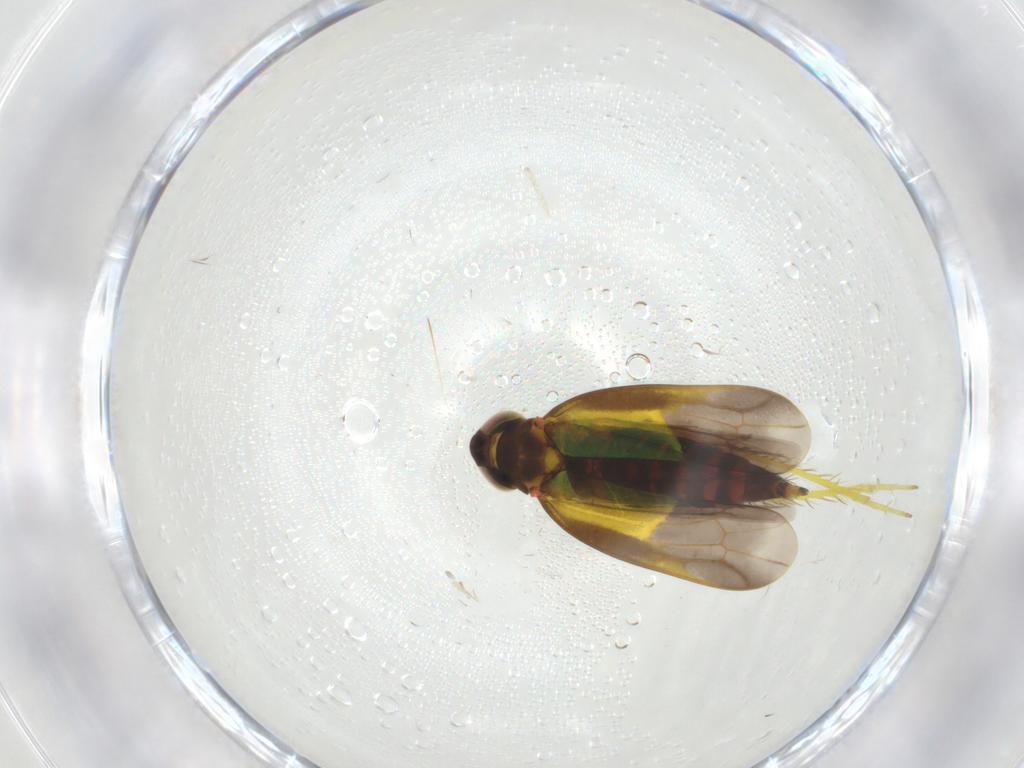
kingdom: Animalia
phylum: Arthropoda
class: Insecta
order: Hemiptera
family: Cicadellidae
